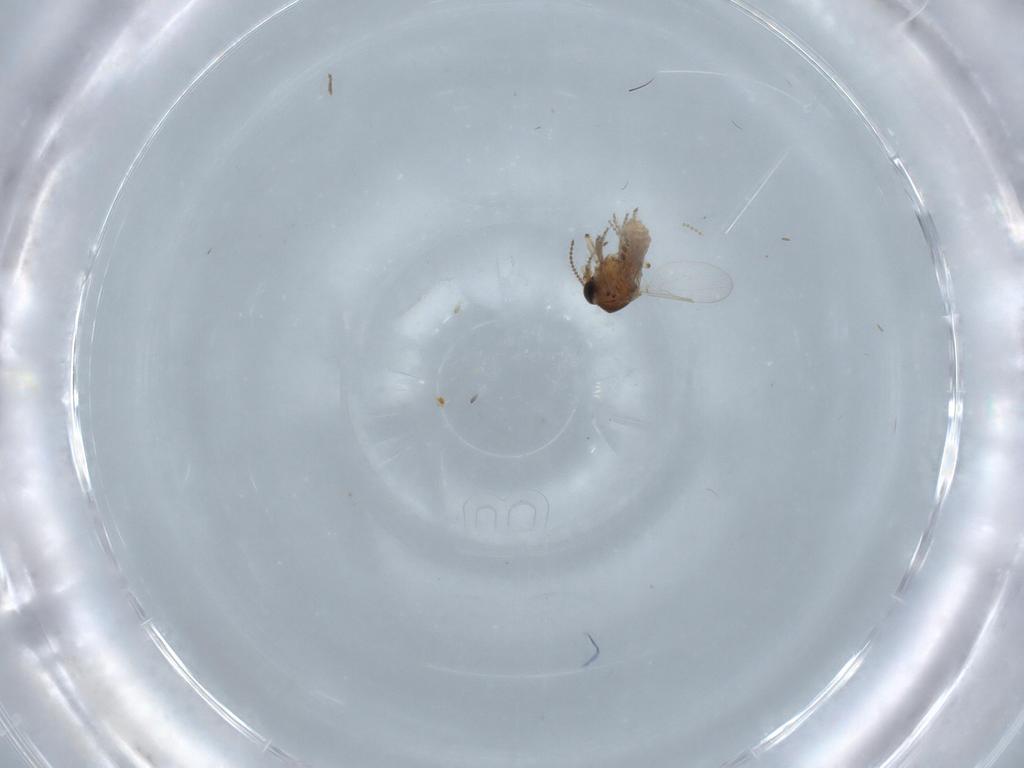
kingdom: Animalia
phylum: Arthropoda
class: Insecta
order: Diptera
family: Ceratopogonidae
